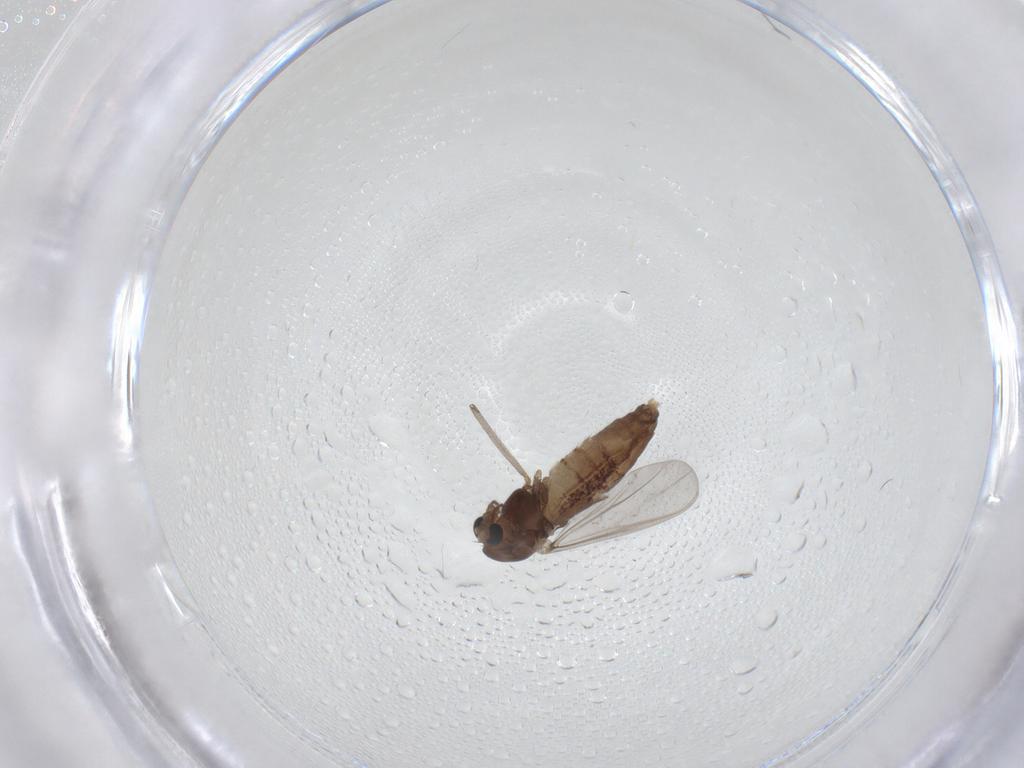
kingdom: Animalia
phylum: Arthropoda
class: Insecta
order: Diptera
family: Chironomidae
